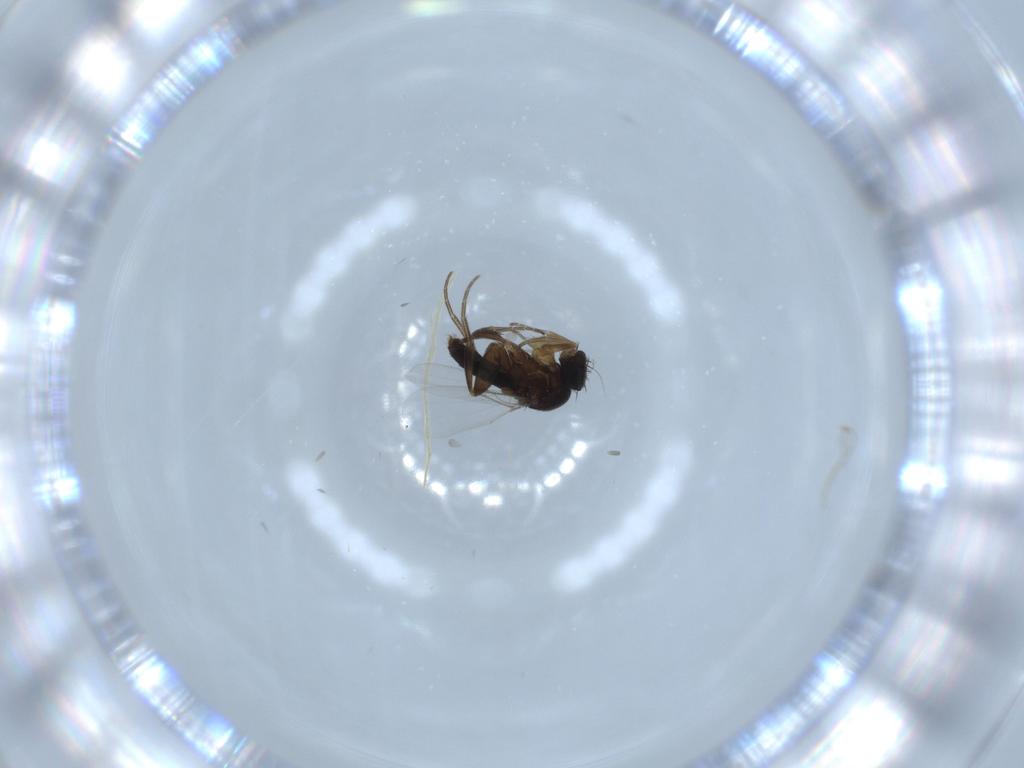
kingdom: Animalia
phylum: Arthropoda
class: Insecta
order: Diptera
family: Phoridae
